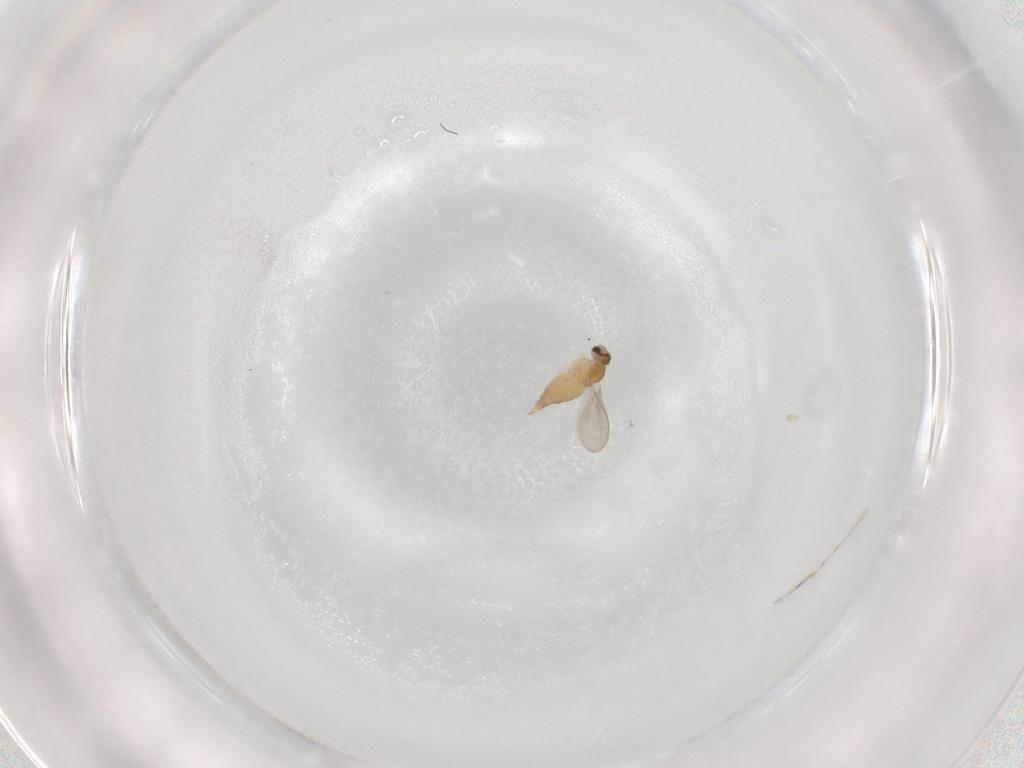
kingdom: Animalia
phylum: Arthropoda
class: Insecta
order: Diptera
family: Cecidomyiidae
